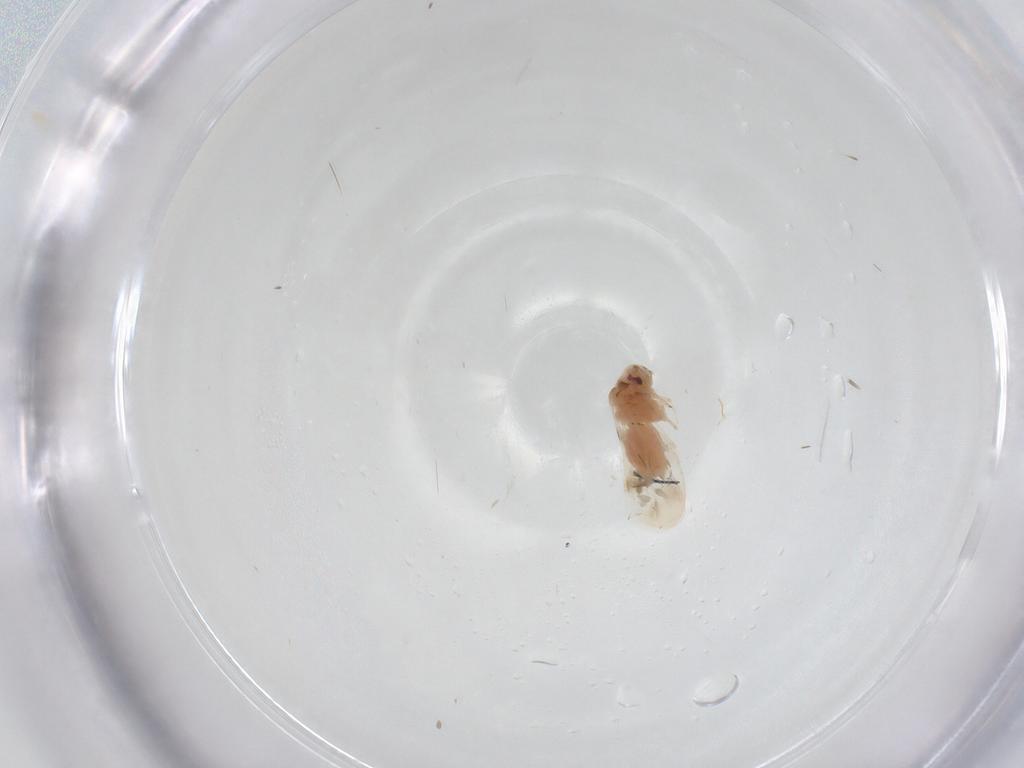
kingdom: Animalia
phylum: Arthropoda
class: Insecta
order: Hemiptera
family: Aleyrodidae
